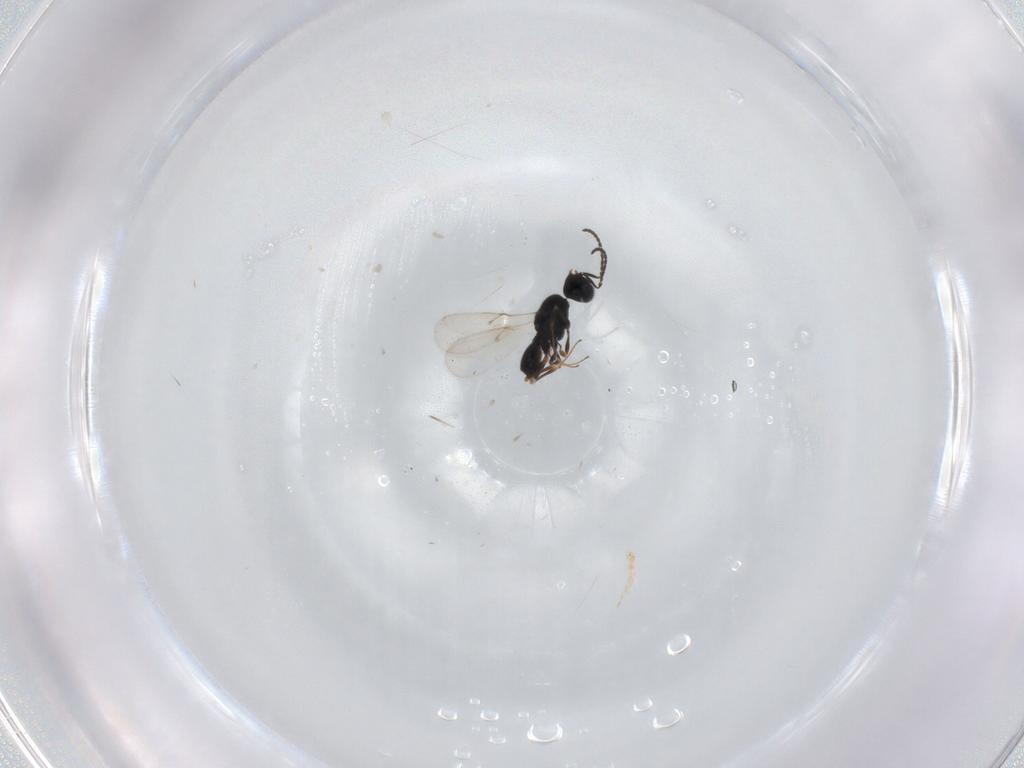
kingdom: Animalia
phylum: Arthropoda
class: Insecta
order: Hymenoptera
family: Scelionidae
